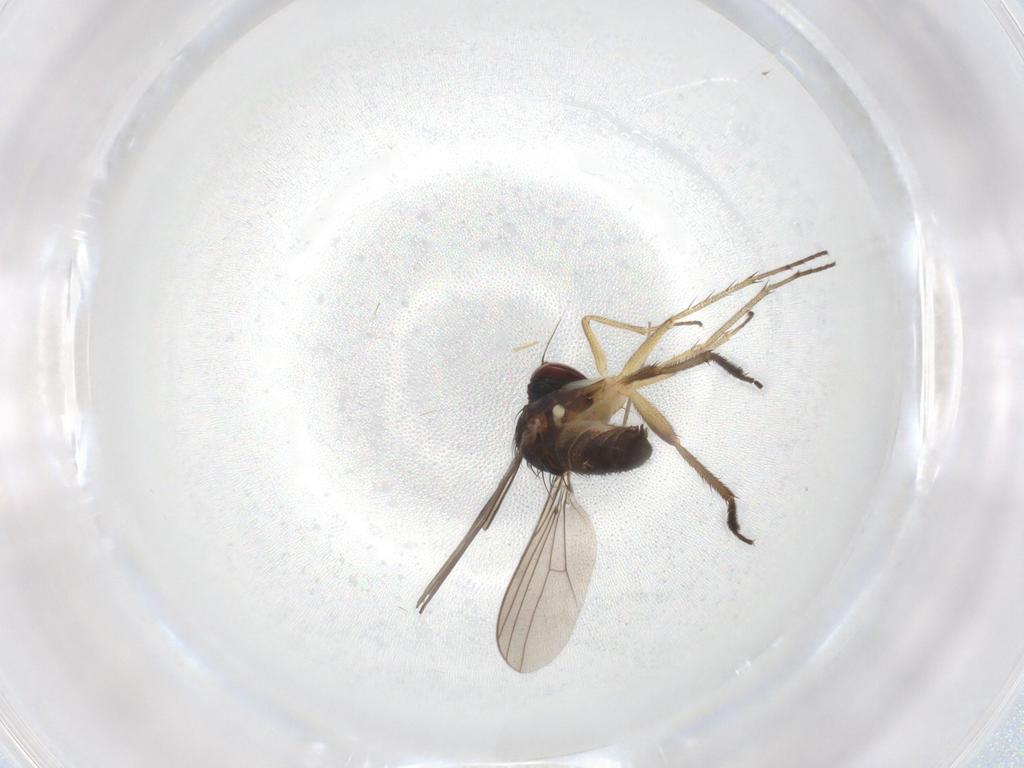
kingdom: Animalia
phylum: Arthropoda
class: Insecta
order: Diptera
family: Dolichopodidae
